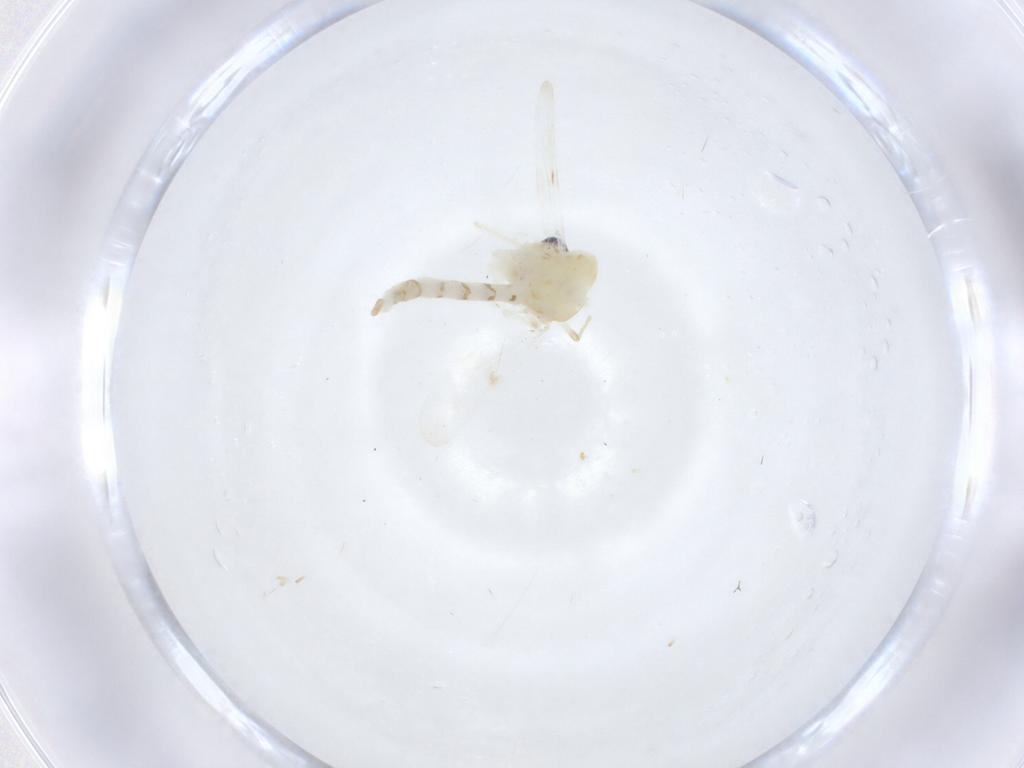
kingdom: Animalia
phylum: Arthropoda
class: Insecta
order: Diptera
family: Chironomidae
